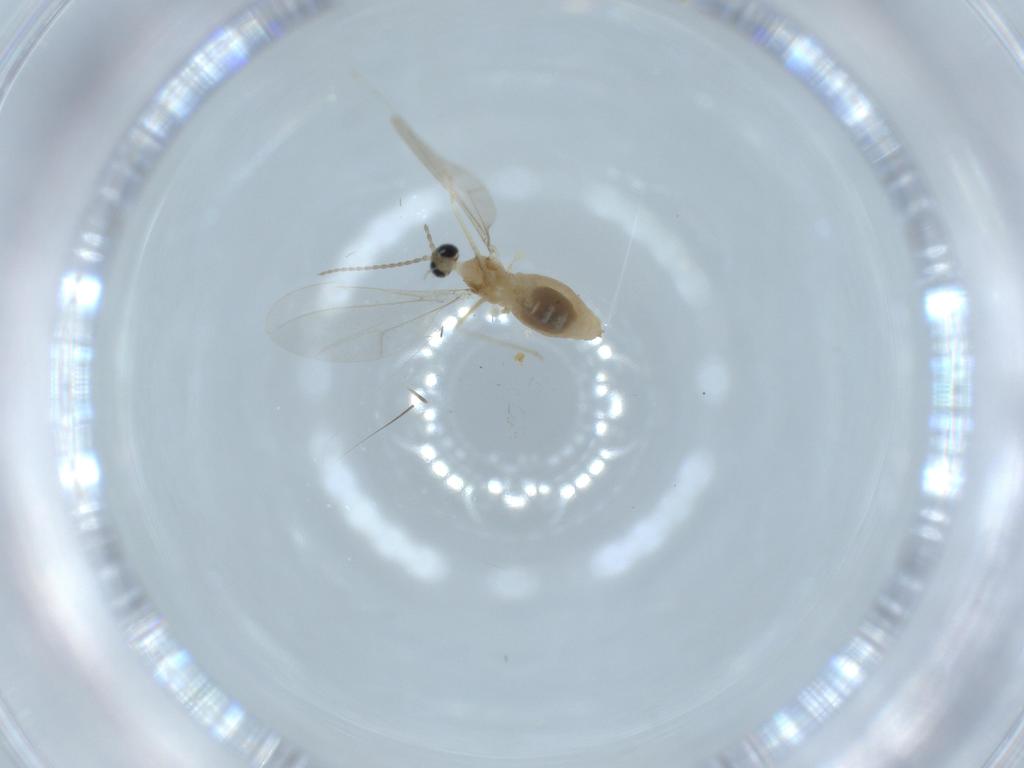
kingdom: Animalia
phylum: Arthropoda
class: Insecta
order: Diptera
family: Cecidomyiidae
